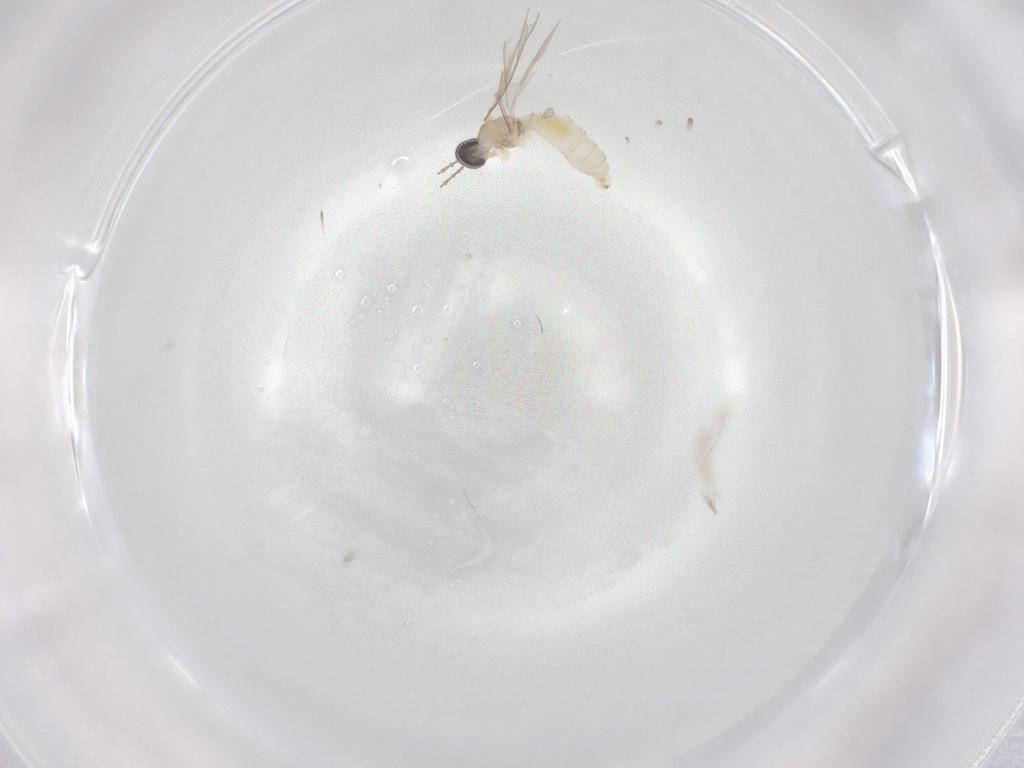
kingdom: Animalia
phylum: Arthropoda
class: Insecta
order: Diptera
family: Cecidomyiidae
